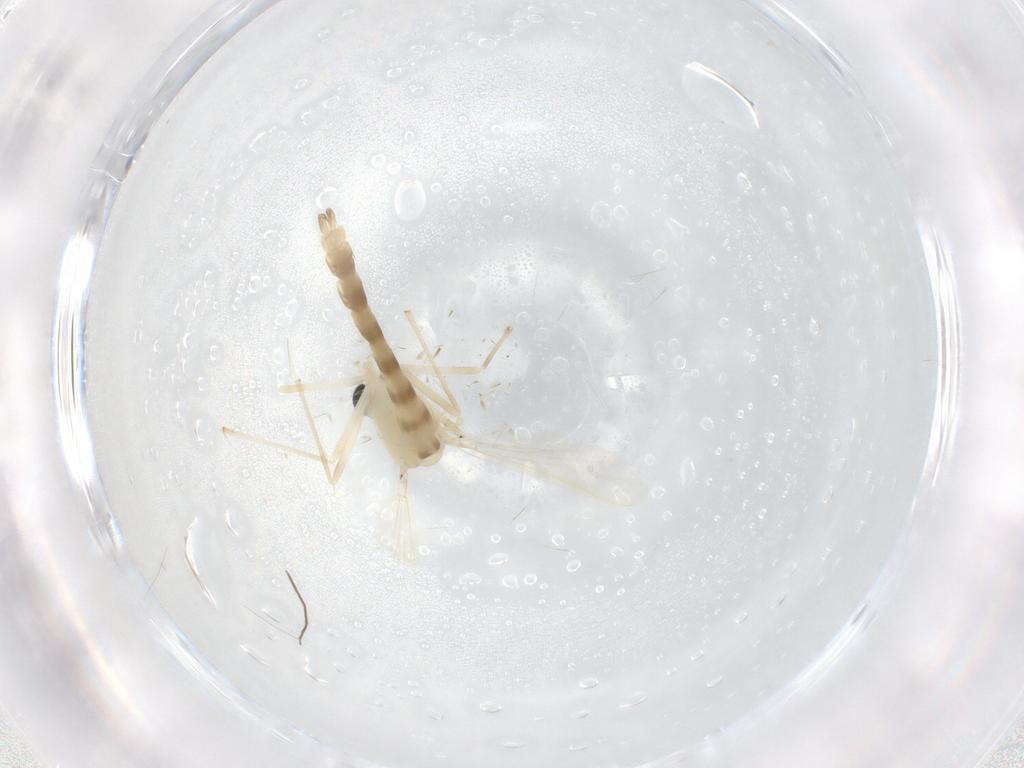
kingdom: Animalia
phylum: Arthropoda
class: Insecta
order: Diptera
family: Chironomidae
